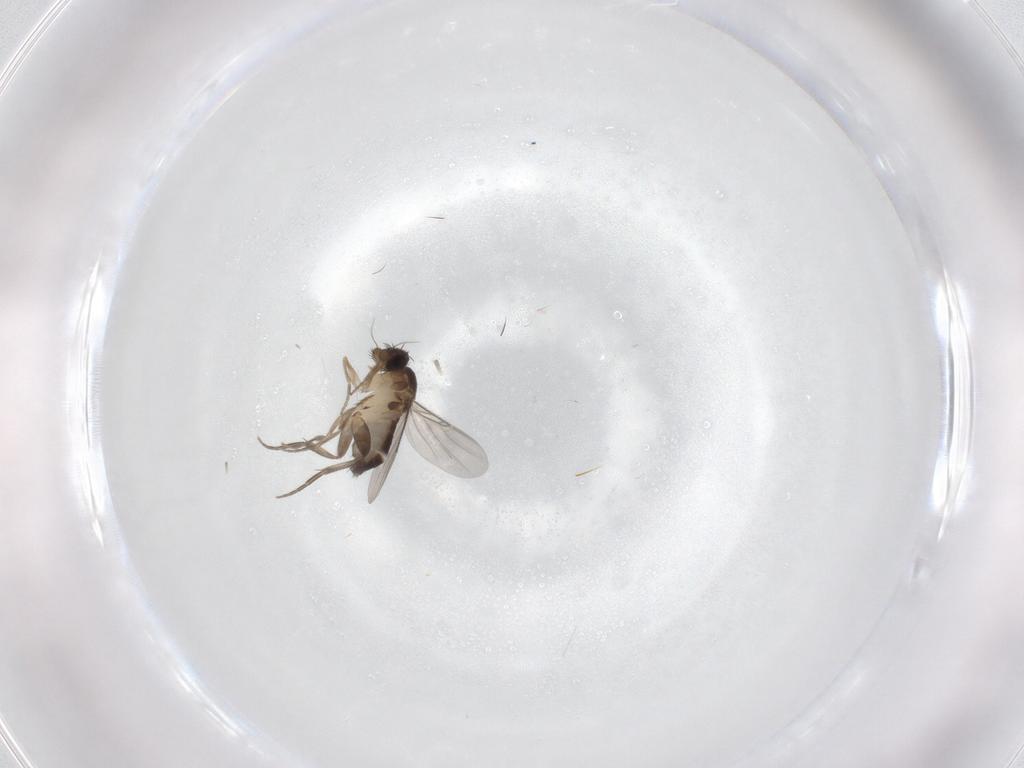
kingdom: Animalia
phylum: Arthropoda
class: Insecta
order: Diptera
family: Phoridae
